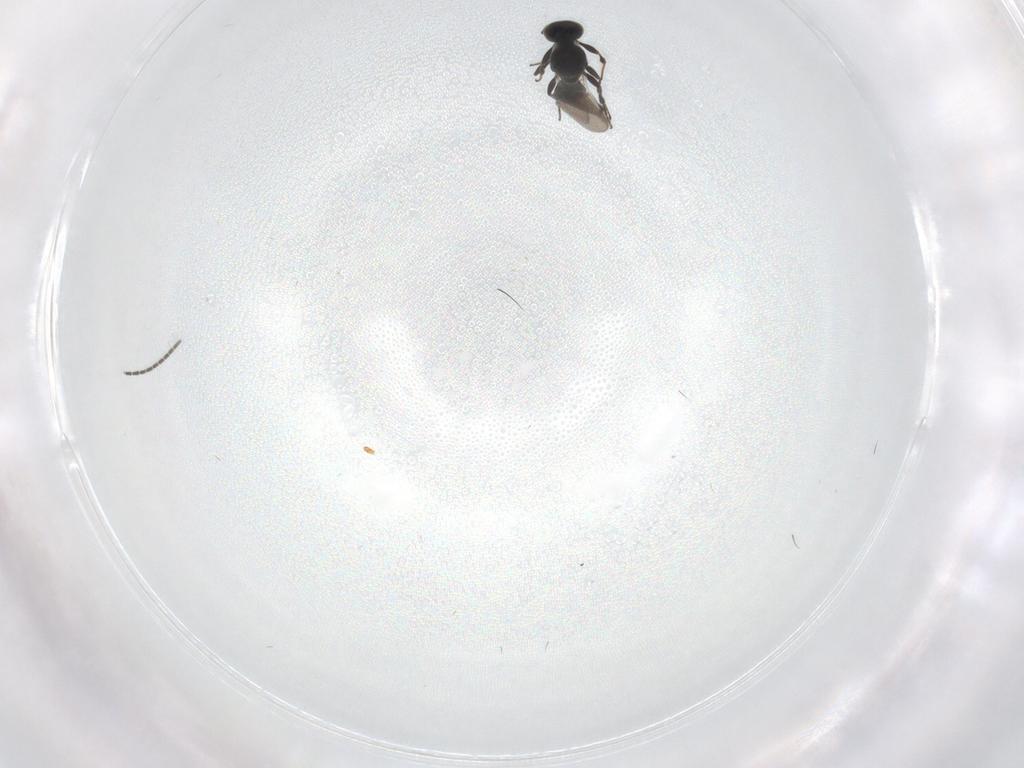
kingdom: Animalia
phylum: Arthropoda
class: Insecta
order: Hymenoptera
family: Platygastridae
